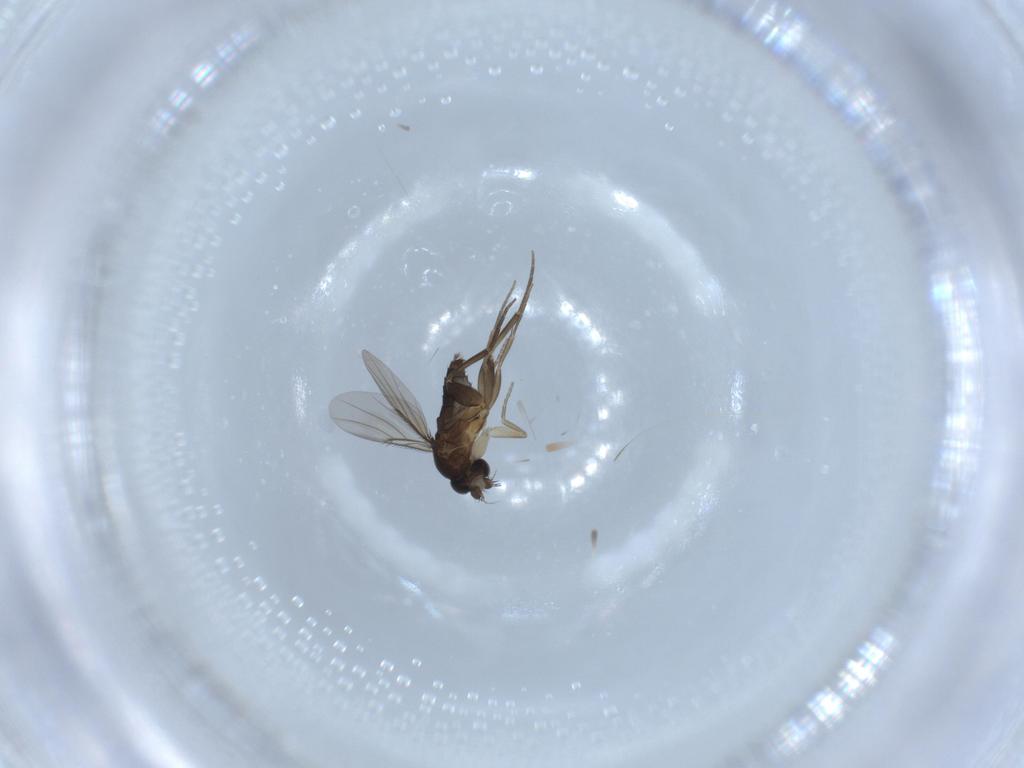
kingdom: Animalia
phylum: Arthropoda
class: Insecta
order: Diptera
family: Phoridae
